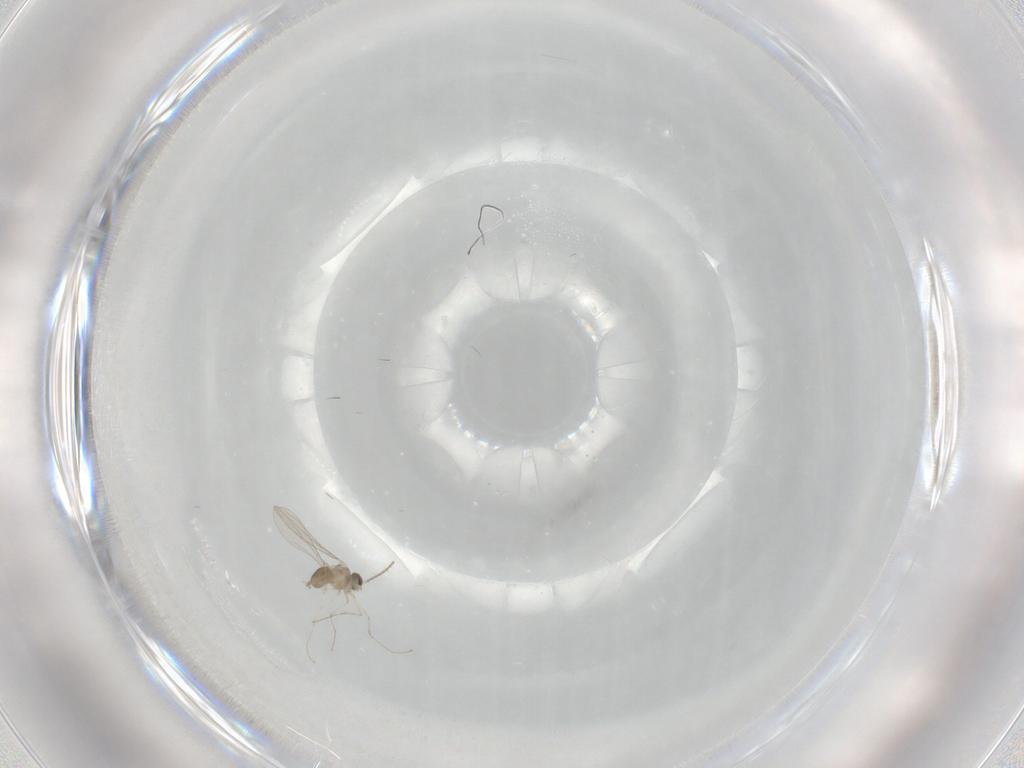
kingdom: Animalia
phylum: Arthropoda
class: Insecta
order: Diptera
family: Cecidomyiidae
